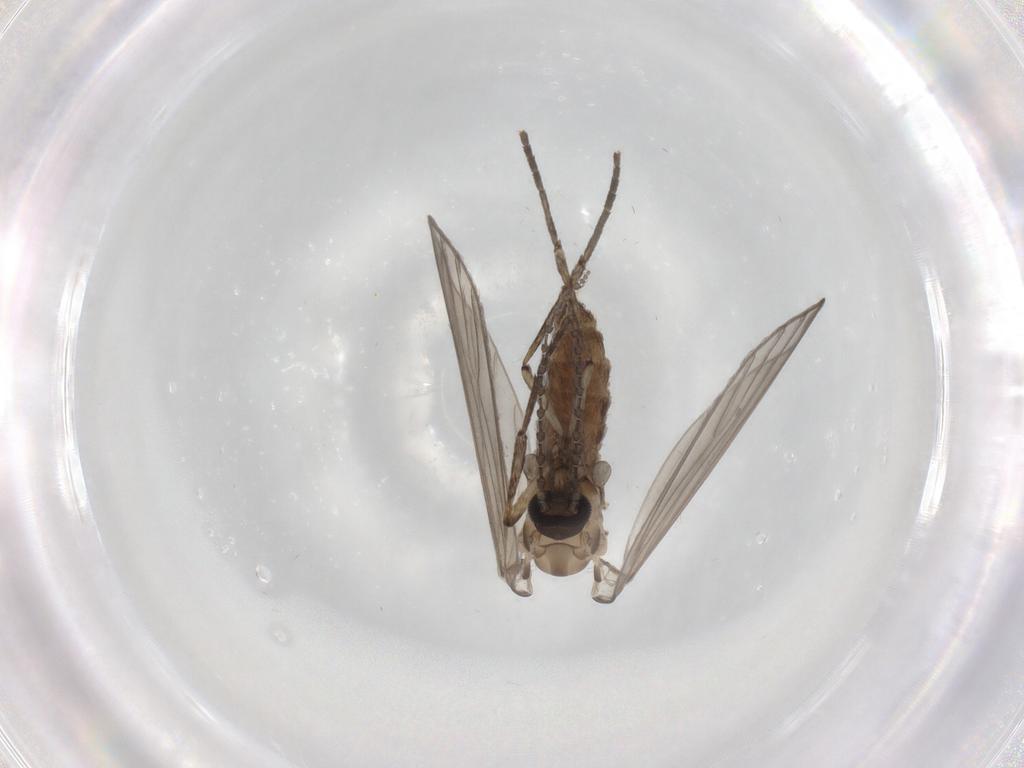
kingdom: Animalia
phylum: Arthropoda
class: Insecta
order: Diptera
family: Psychodidae
